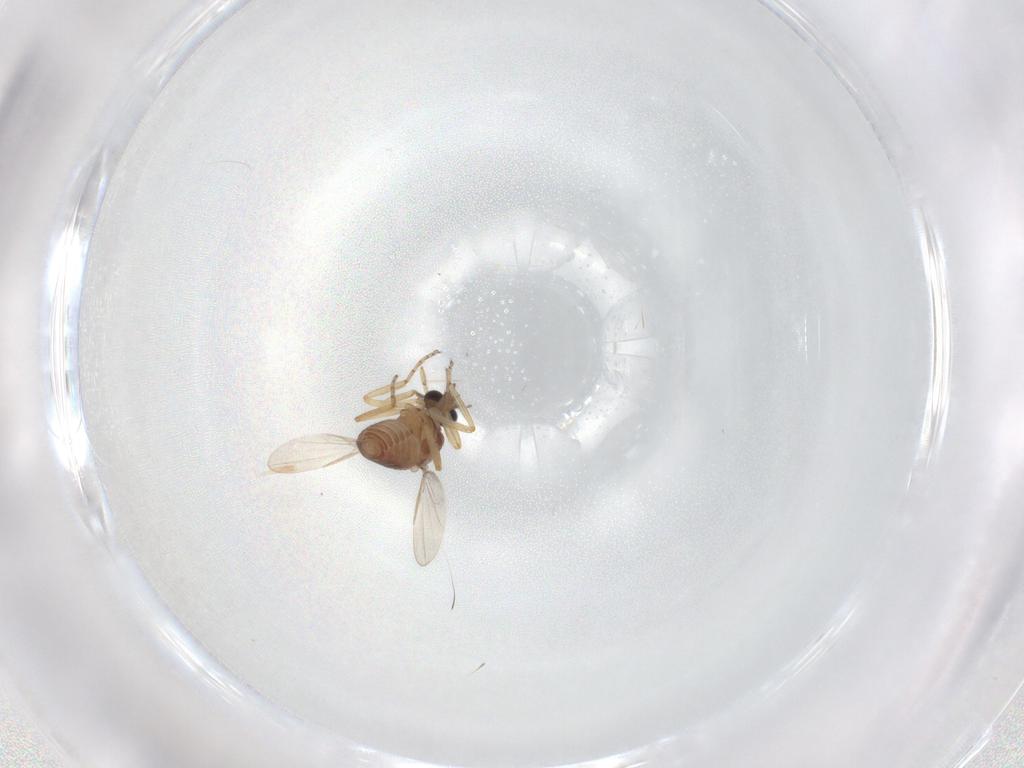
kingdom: Animalia
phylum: Arthropoda
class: Insecta
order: Diptera
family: Ceratopogonidae
